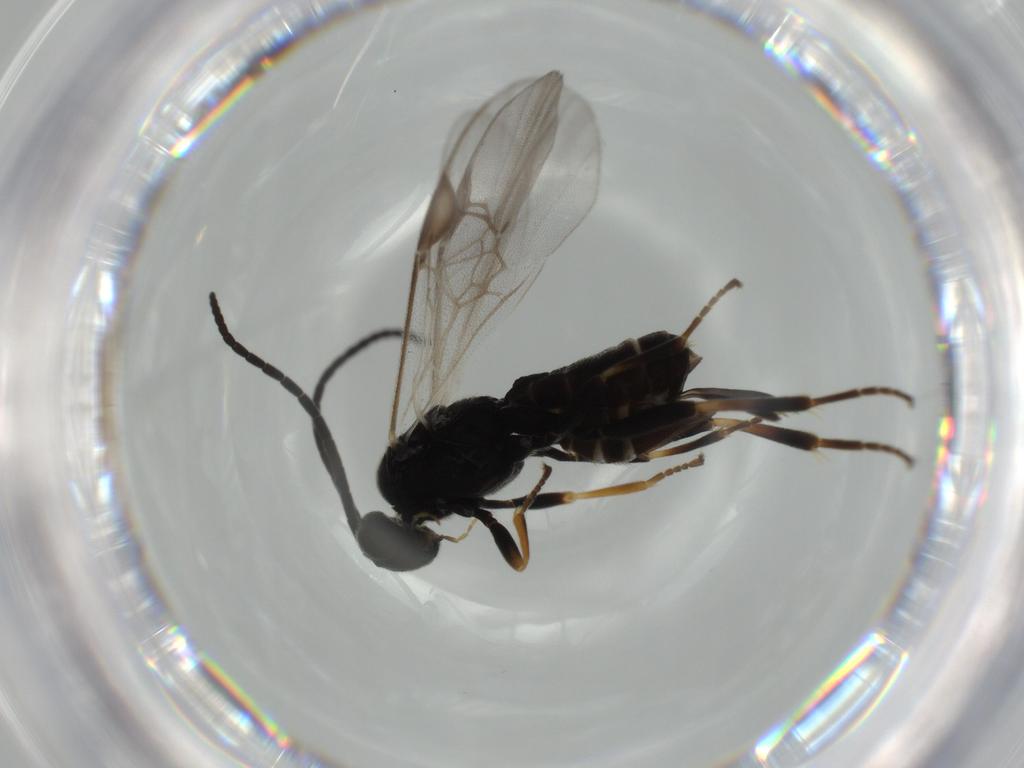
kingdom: Animalia
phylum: Arthropoda
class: Insecta
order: Hymenoptera
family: Braconidae
